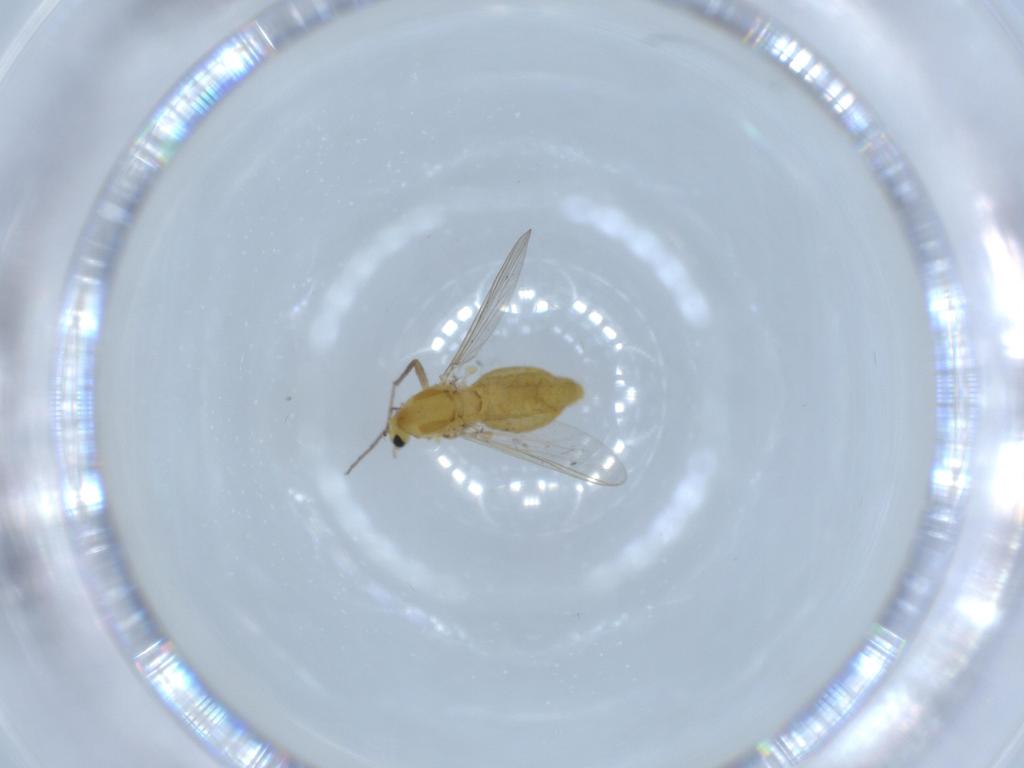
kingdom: Animalia
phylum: Arthropoda
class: Insecta
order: Diptera
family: Chironomidae
